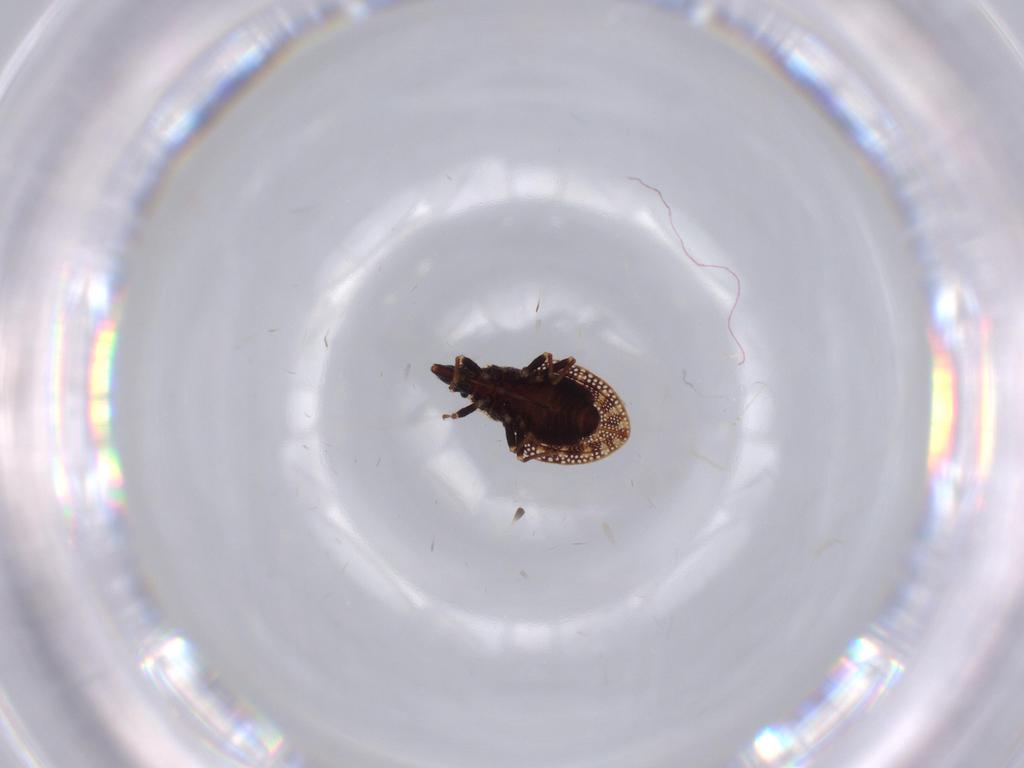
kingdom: Animalia
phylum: Arthropoda
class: Insecta
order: Hemiptera
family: Tingidae
